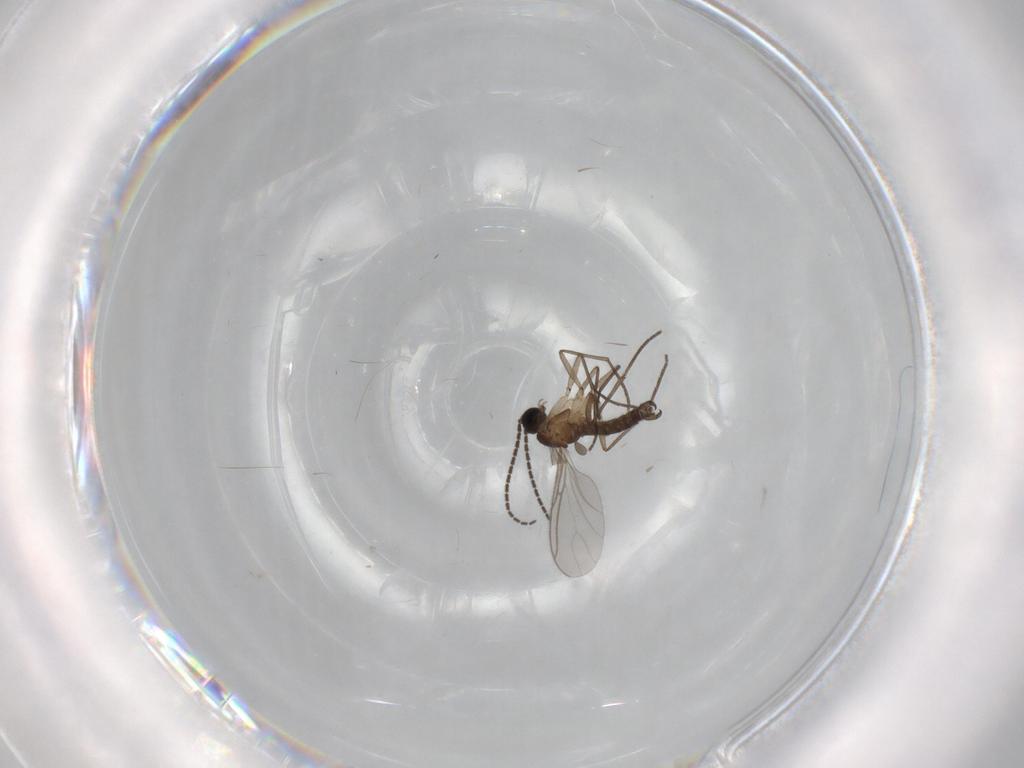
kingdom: Animalia
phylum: Arthropoda
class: Insecta
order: Diptera
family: Sciaridae
